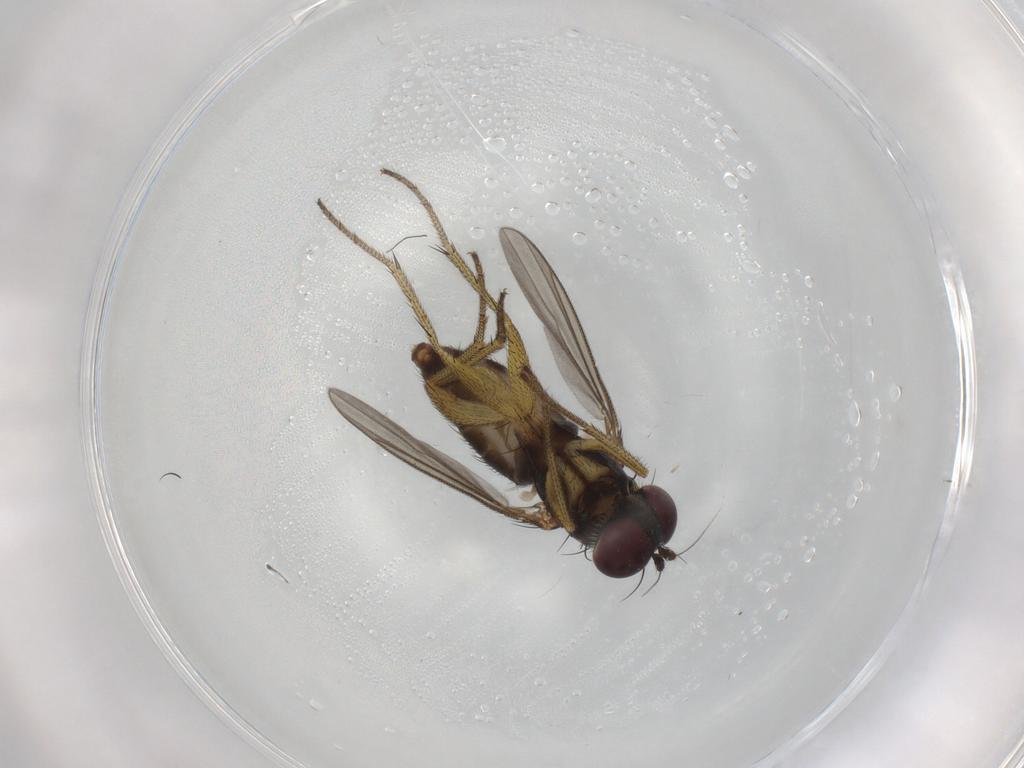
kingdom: Animalia
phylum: Arthropoda
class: Insecta
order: Diptera
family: Dolichopodidae
